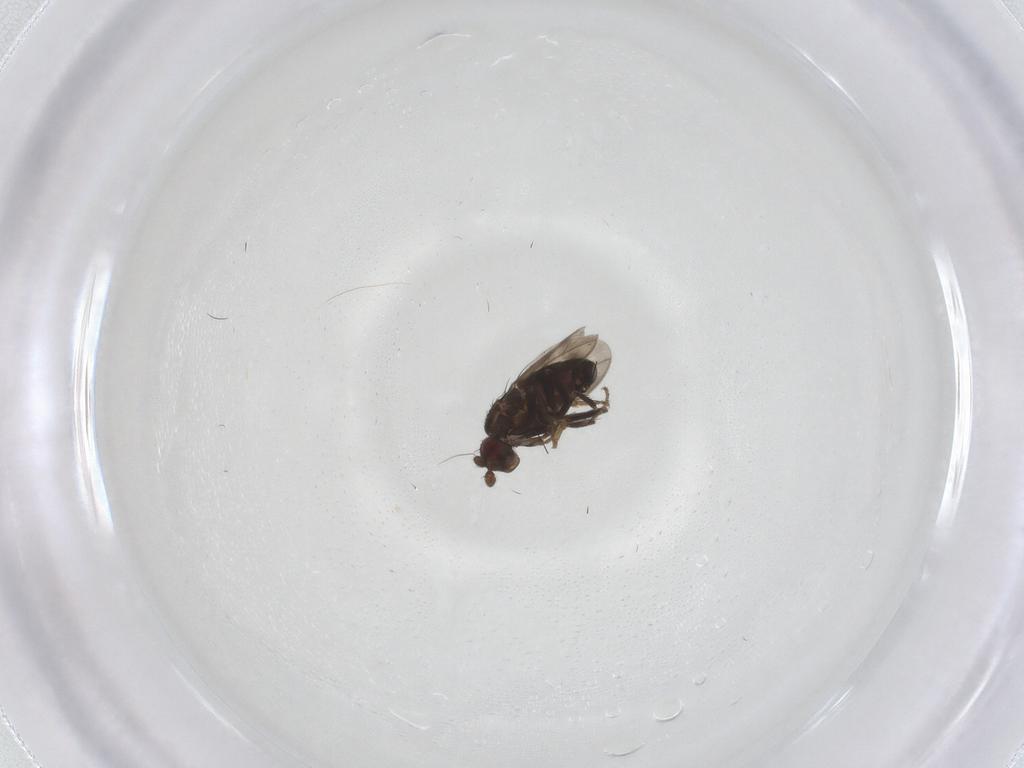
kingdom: Animalia
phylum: Arthropoda
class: Insecta
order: Diptera
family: Sphaeroceridae
